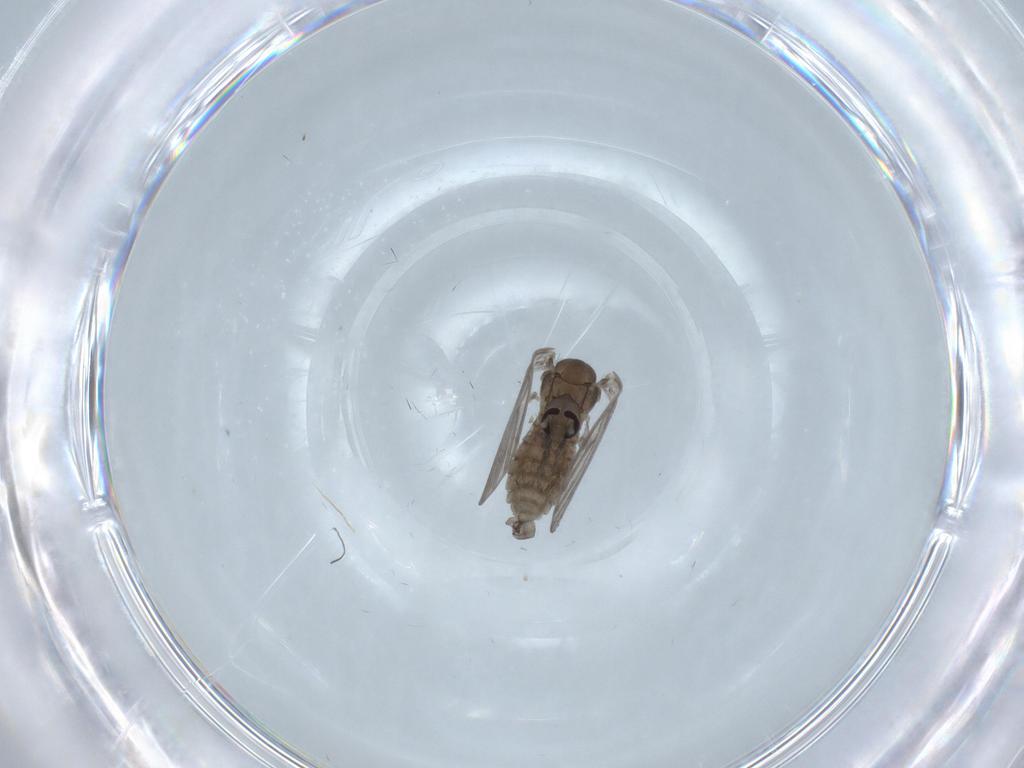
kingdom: Animalia
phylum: Arthropoda
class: Insecta
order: Diptera
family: Psychodidae
